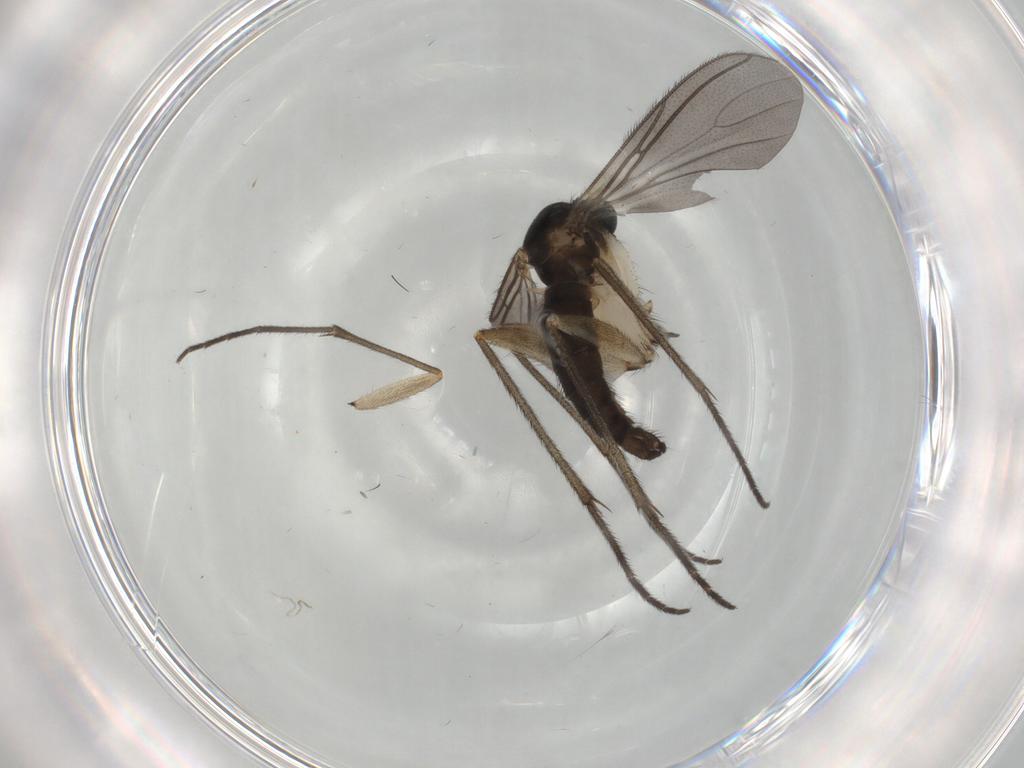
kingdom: Animalia
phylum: Arthropoda
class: Insecta
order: Diptera
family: Sciaridae
